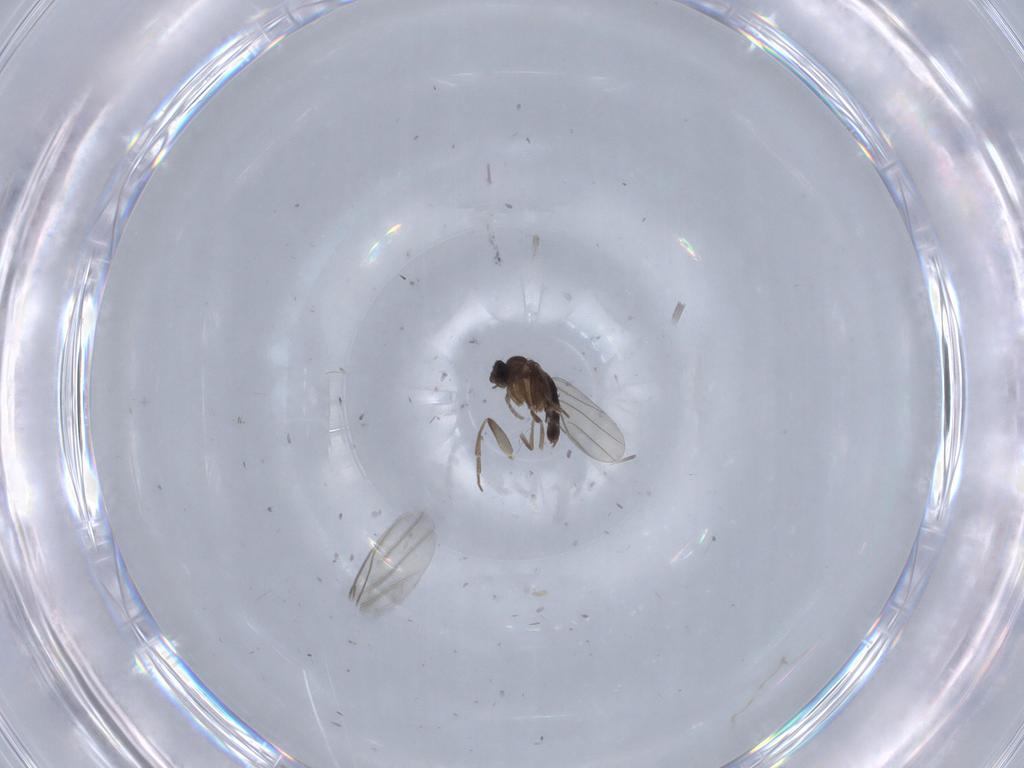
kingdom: Animalia
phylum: Arthropoda
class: Insecta
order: Diptera
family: Phoridae
